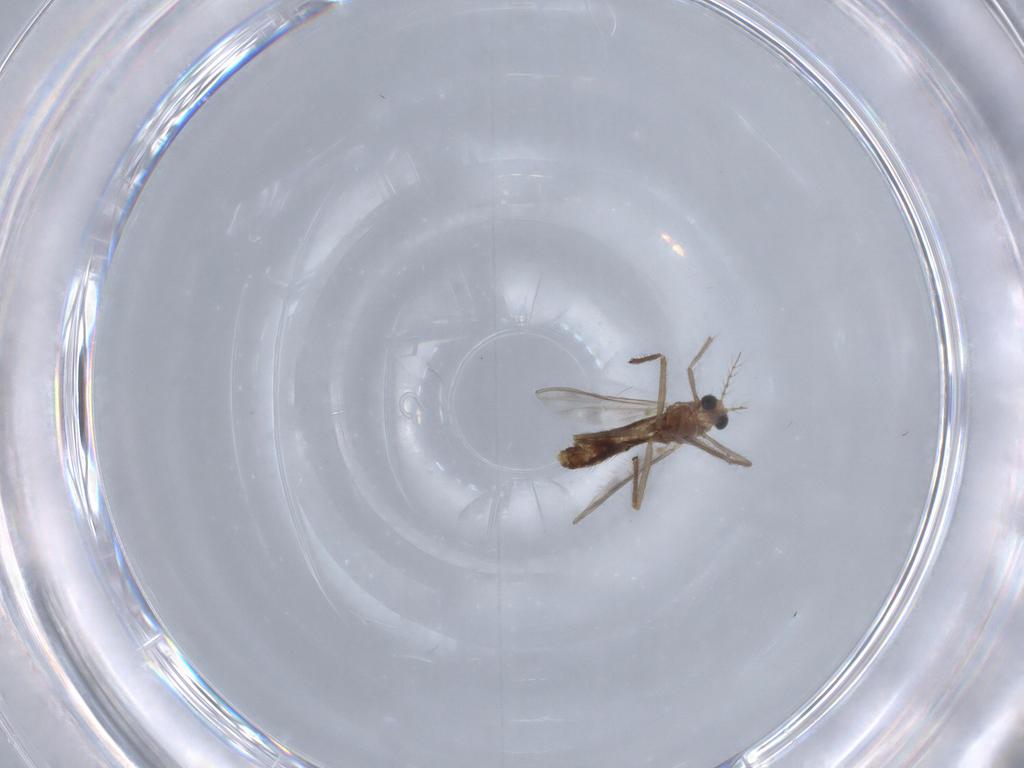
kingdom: Animalia
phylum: Arthropoda
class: Insecta
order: Diptera
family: Chironomidae
